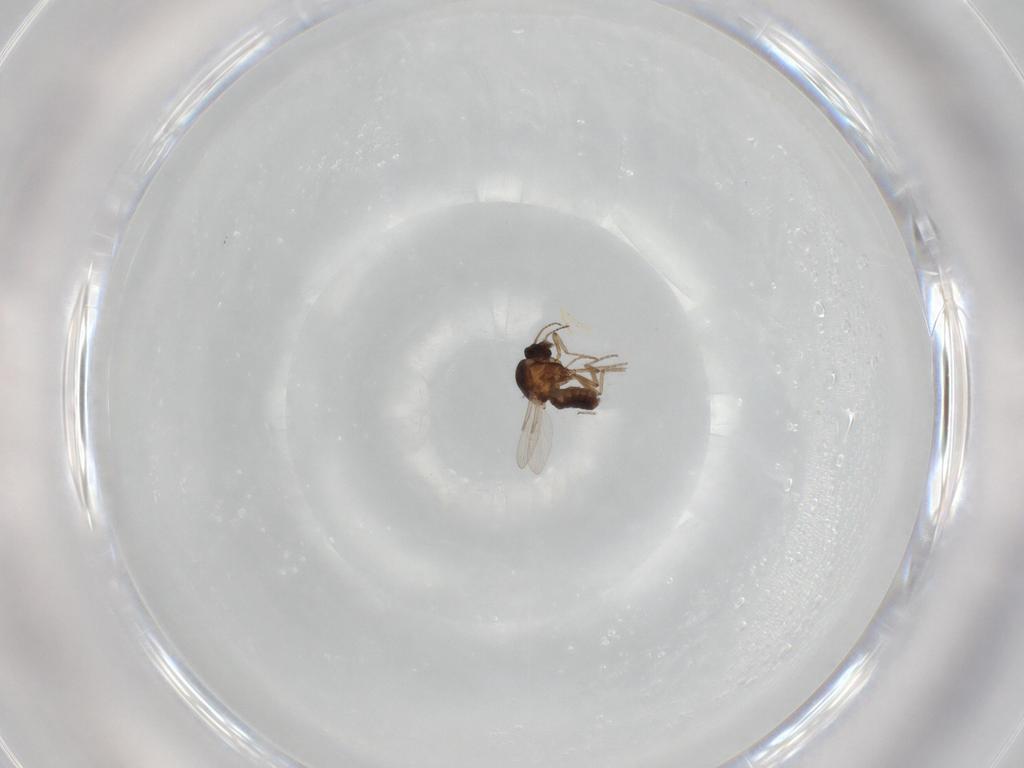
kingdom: Animalia
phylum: Arthropoda
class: Insecta
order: Diptera
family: Ceratopogonidae
